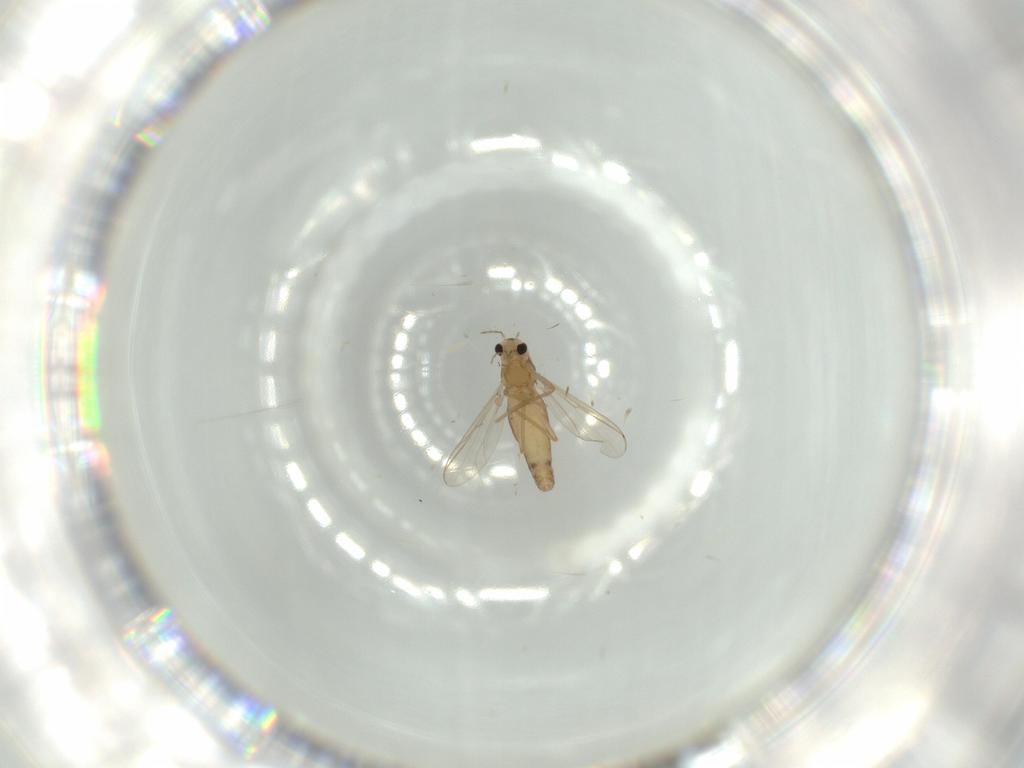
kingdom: Animalia
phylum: Arthropoda
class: Insecta
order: Diptera
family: Chironomidae
